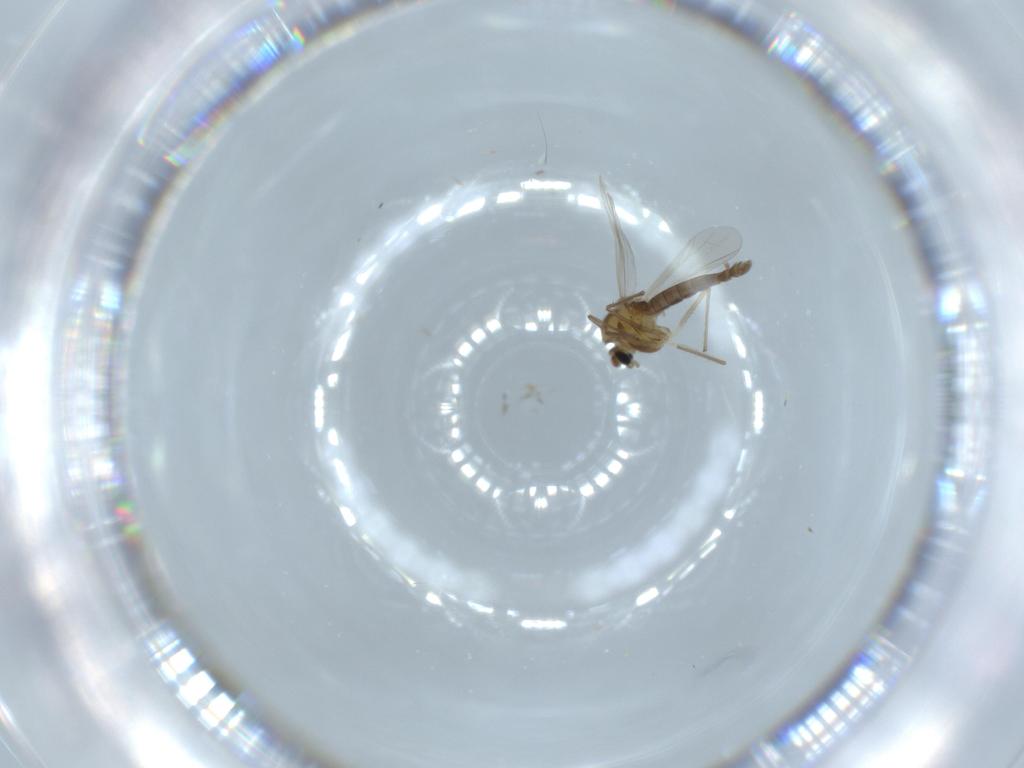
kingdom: Animalia
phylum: Arthropoda
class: Insecta
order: Diptera
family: Chironomidae
